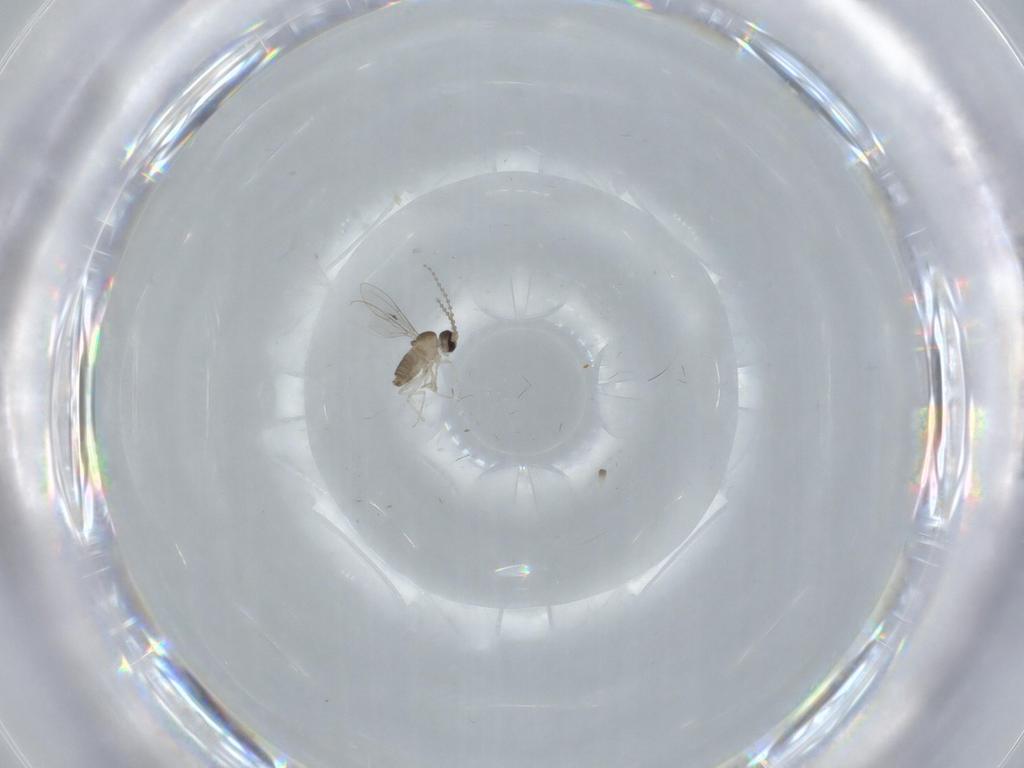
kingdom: Animalia
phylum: Arthropoda
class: Insecta
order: Diptera
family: Cecidomyiidae
